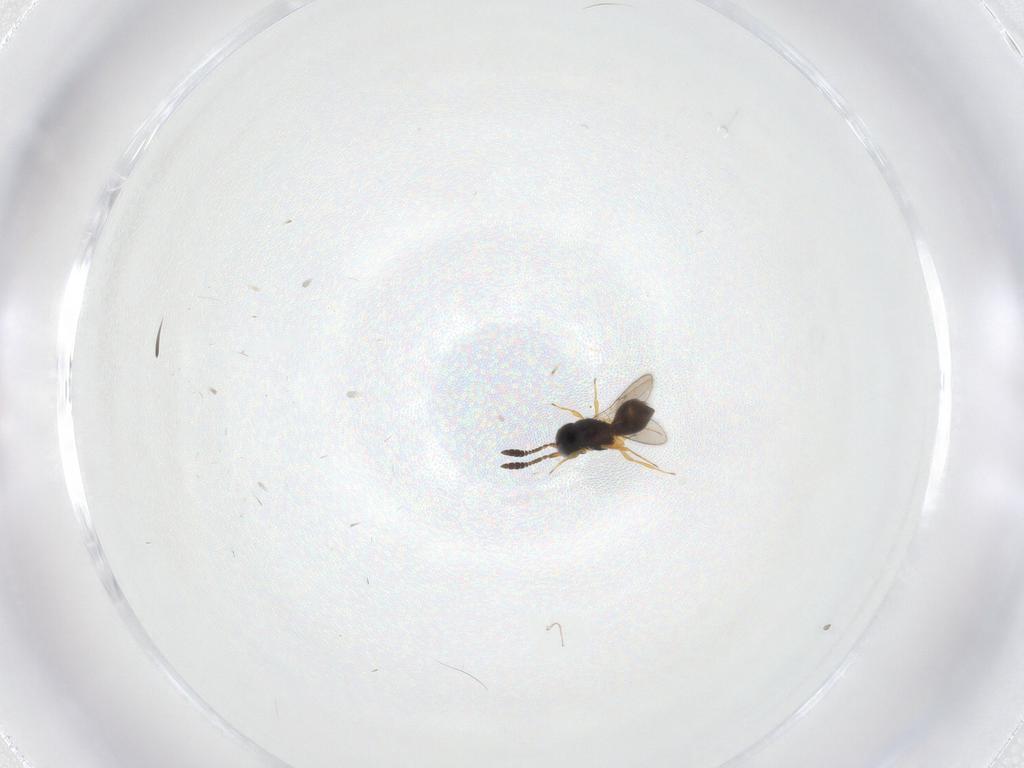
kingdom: Animalia
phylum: Arthropoda
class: Insecta
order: Hymenoptera
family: Scelionidae
